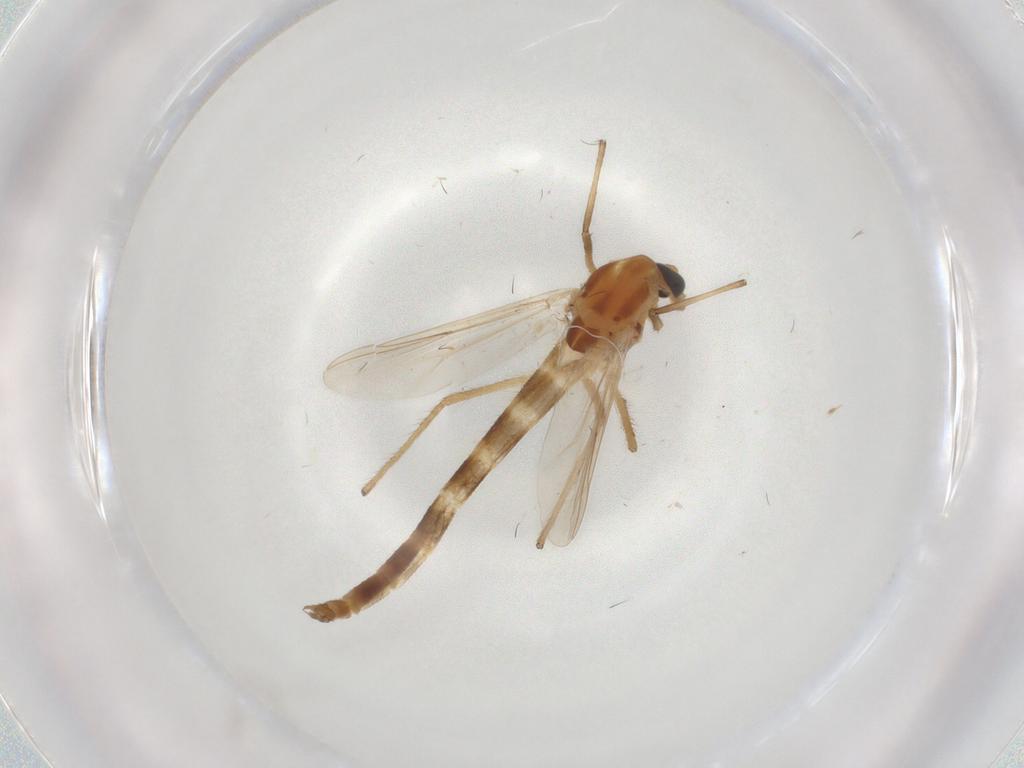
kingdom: Animalia
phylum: Arthropoda
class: Insecta
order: Diptera
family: Chironomidae
